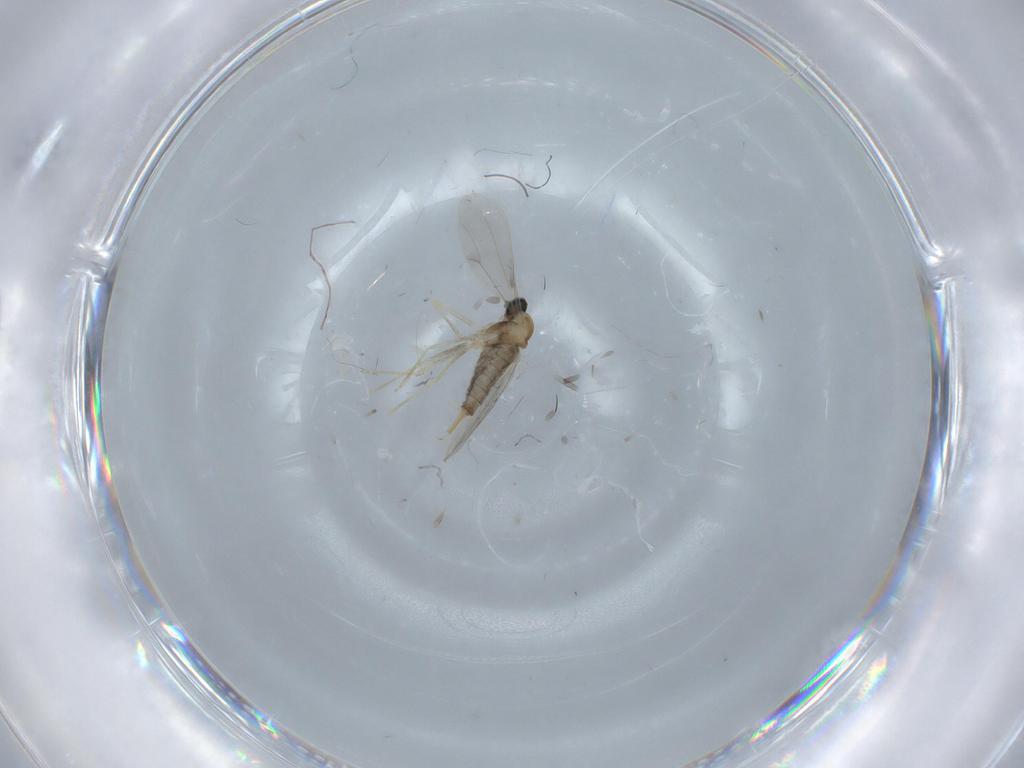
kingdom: Animalia
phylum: Arthropoda
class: Insecta
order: Diptera
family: Cecidomyiidae
